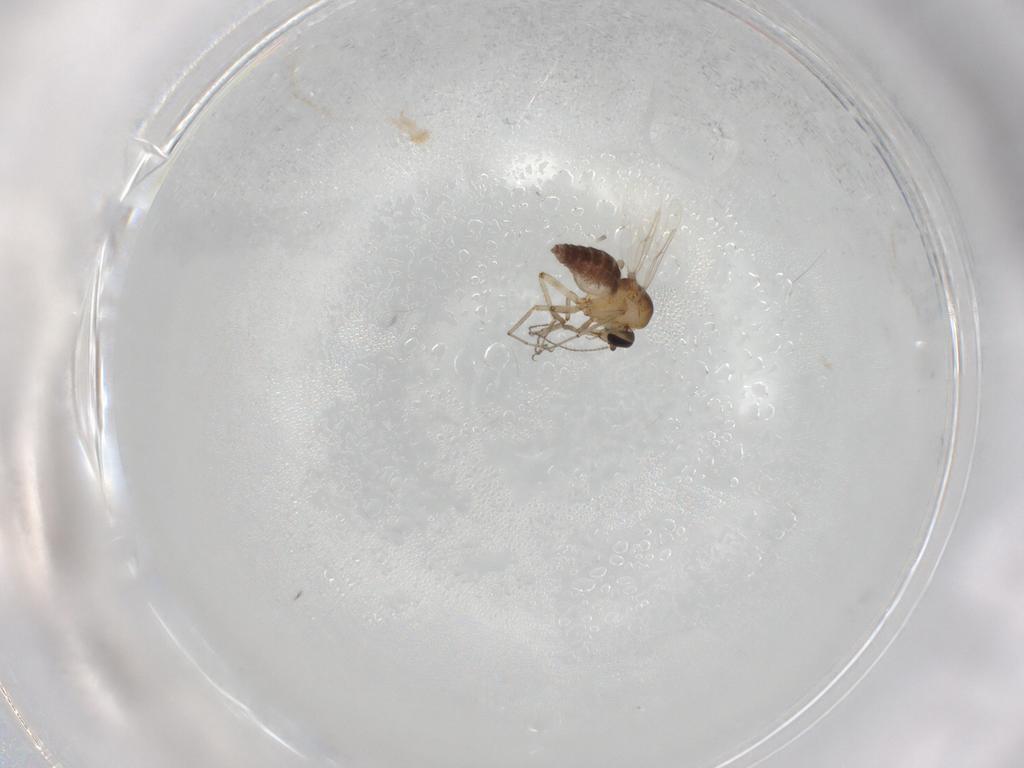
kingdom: Animalia
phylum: Arthropoda
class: Insecta
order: Diptera
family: Ceratopogonidae
